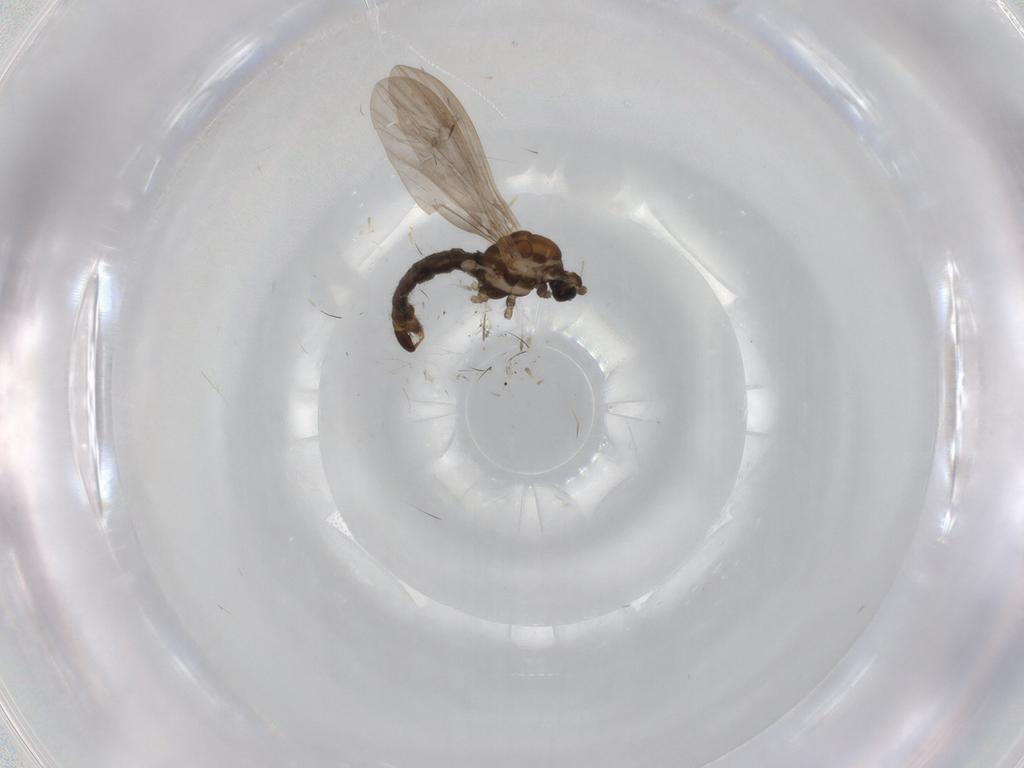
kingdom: Animalia
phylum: Arthropoda
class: Insecta
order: Diptera
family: Limoniidae
